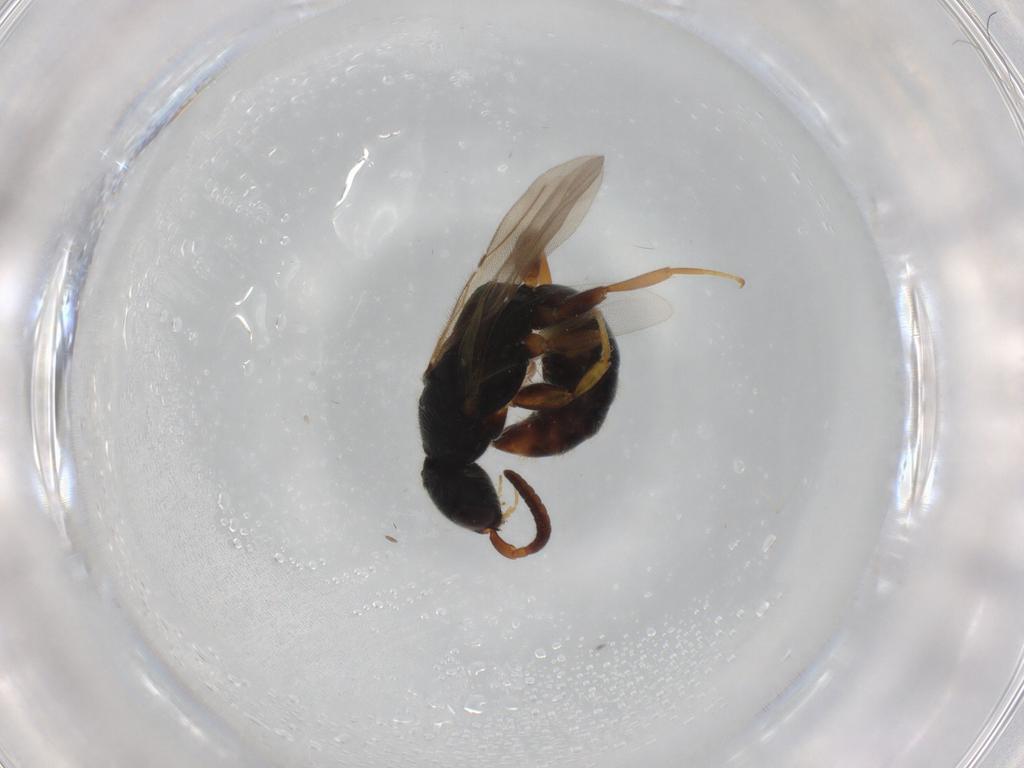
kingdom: Animalia
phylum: Arthropoda
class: Insecta
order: Hymenoptera
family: Bethylidae
